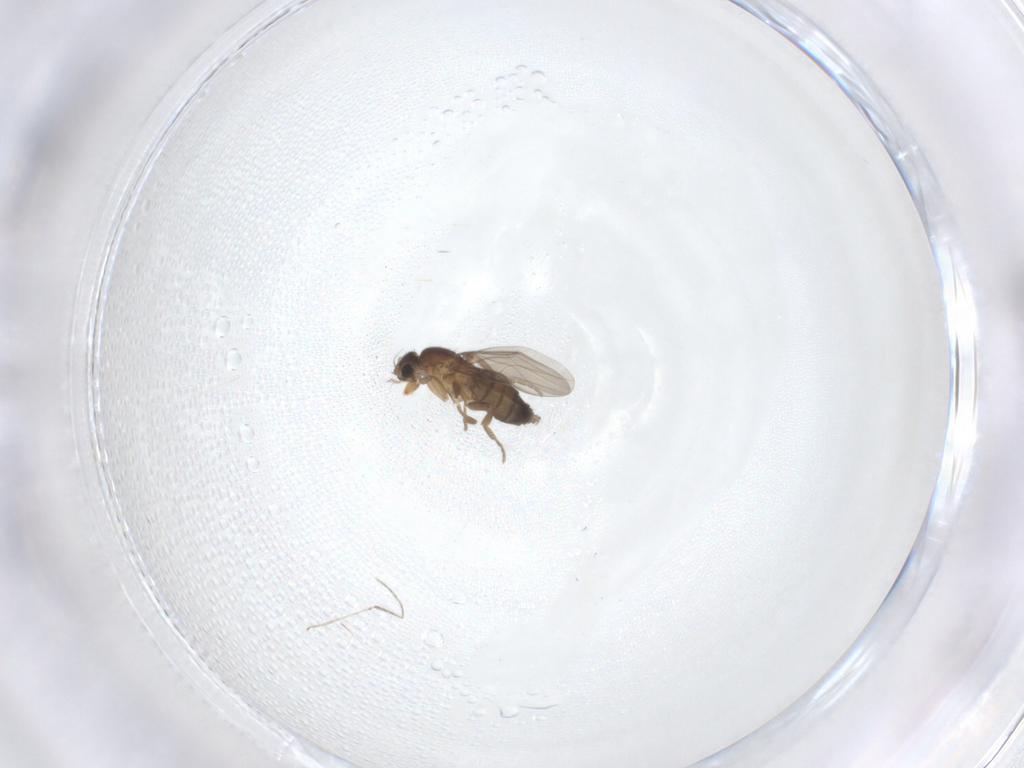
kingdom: Animalia
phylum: Arthropoda
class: Insecta
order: Diptera
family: Phoridae
